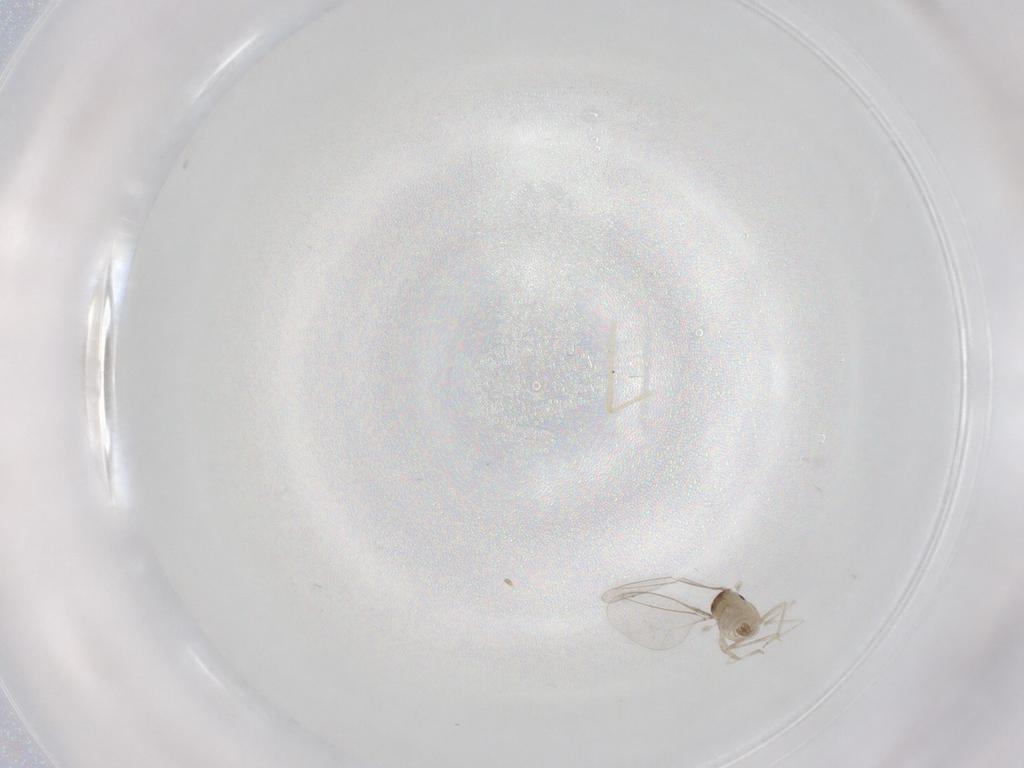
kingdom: Animalia
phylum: Arthropoda
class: Insecta
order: Diptera
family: Cecidomyiidae
